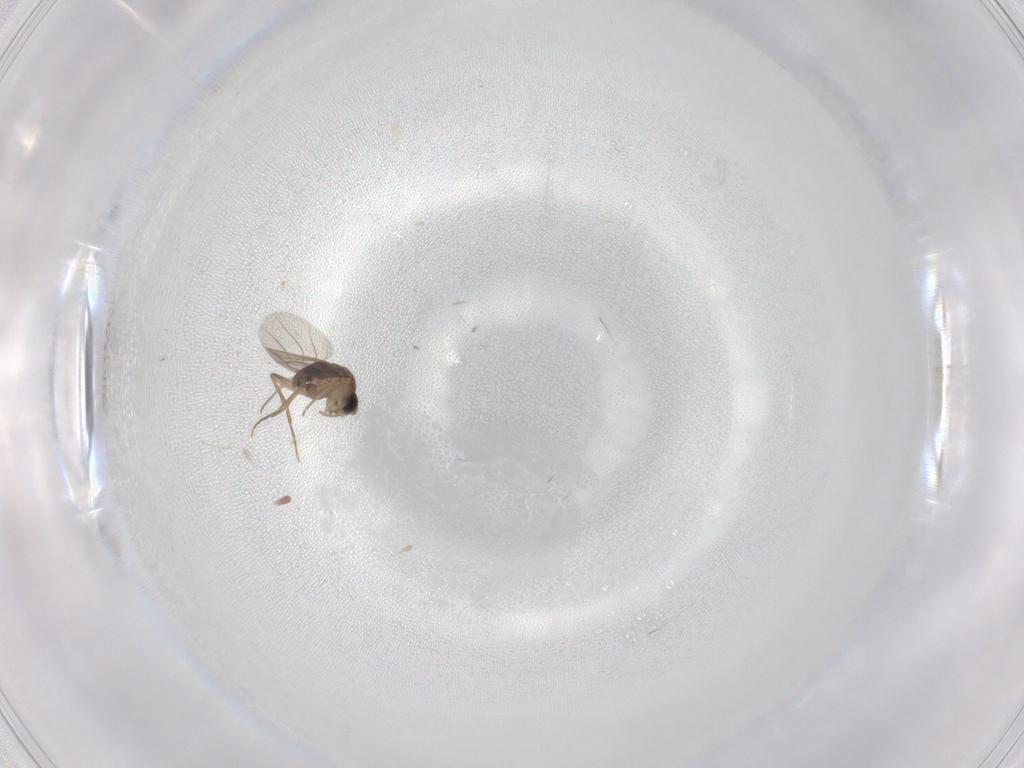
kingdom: Animalia
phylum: Arthropoda
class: Insecta
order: Diptera
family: Cecidomyiidae
